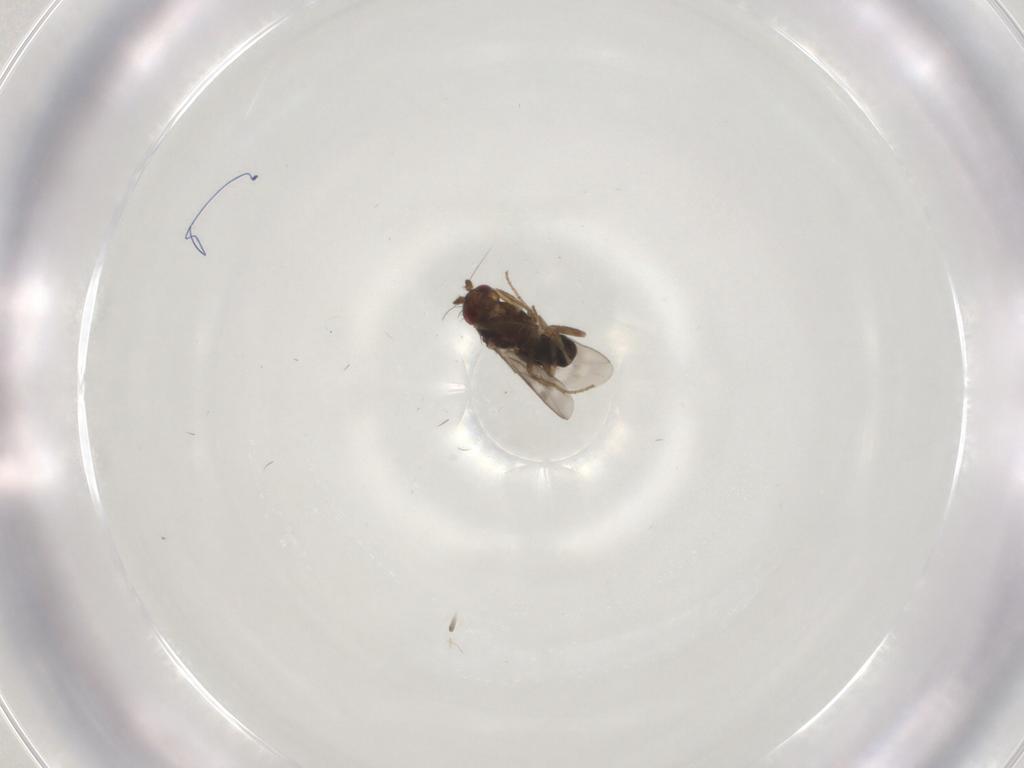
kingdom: Animalia
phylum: Arthropoda
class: Insecta
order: Diptera
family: Sphaeroceridae
